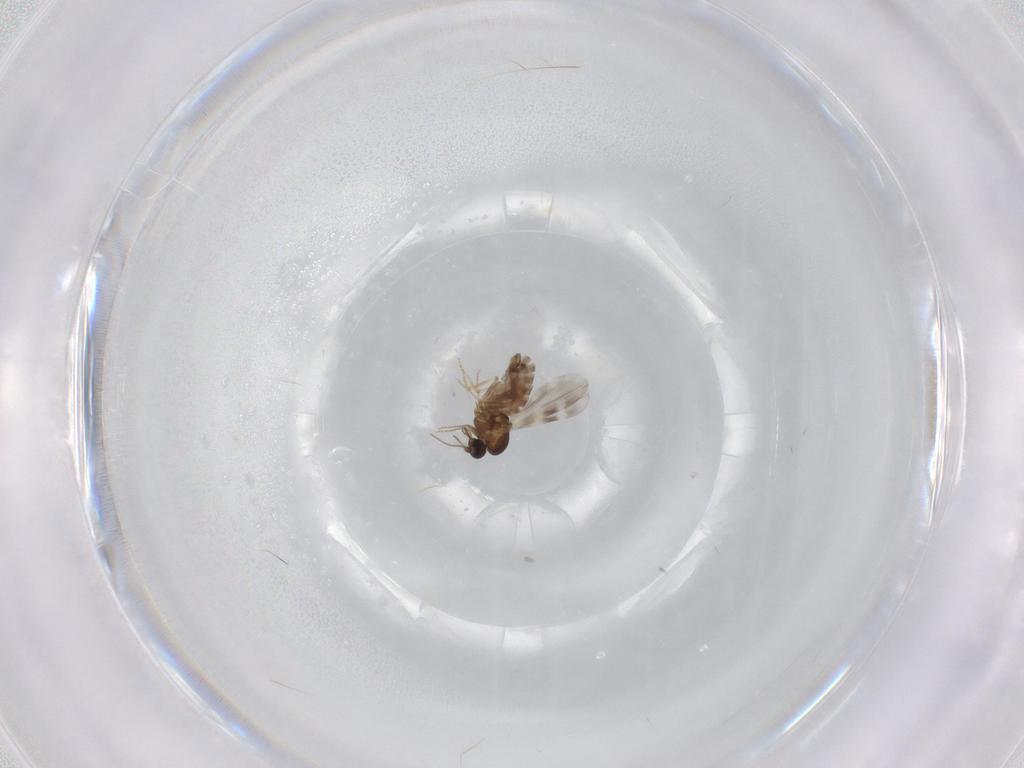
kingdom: Animalia
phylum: Arthropoda
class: Insecta
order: Diptera
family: Ceratopogonidae
